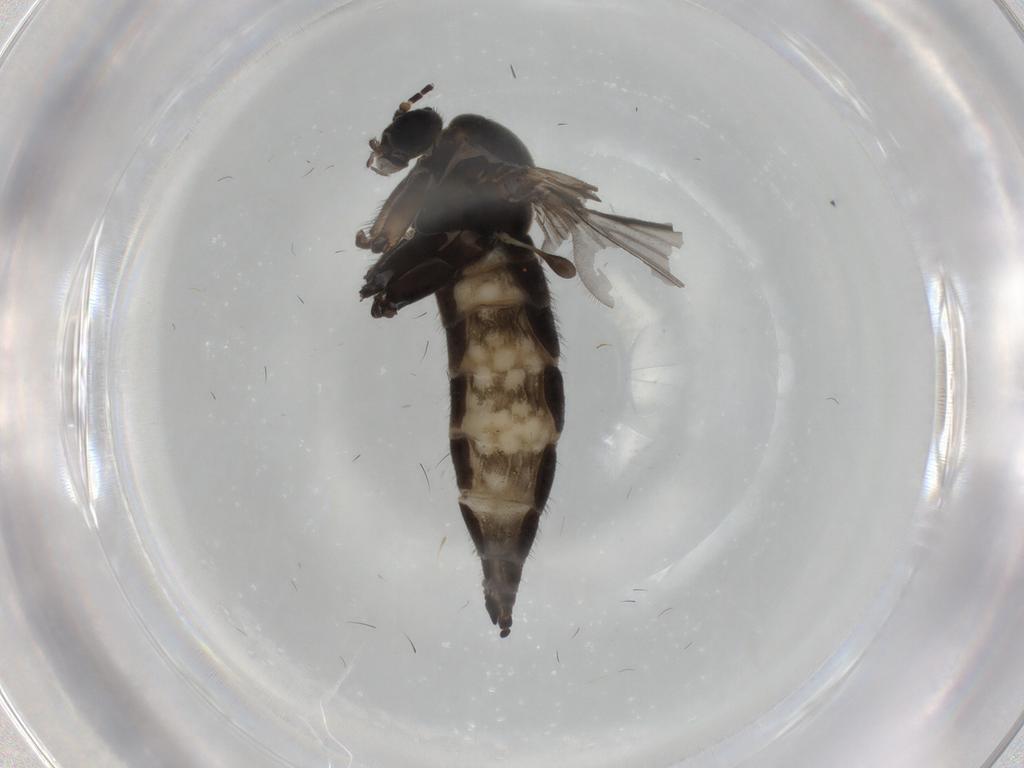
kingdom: Animalia
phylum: Arthropoda
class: Insecta
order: Diptera
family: Sciaridae
